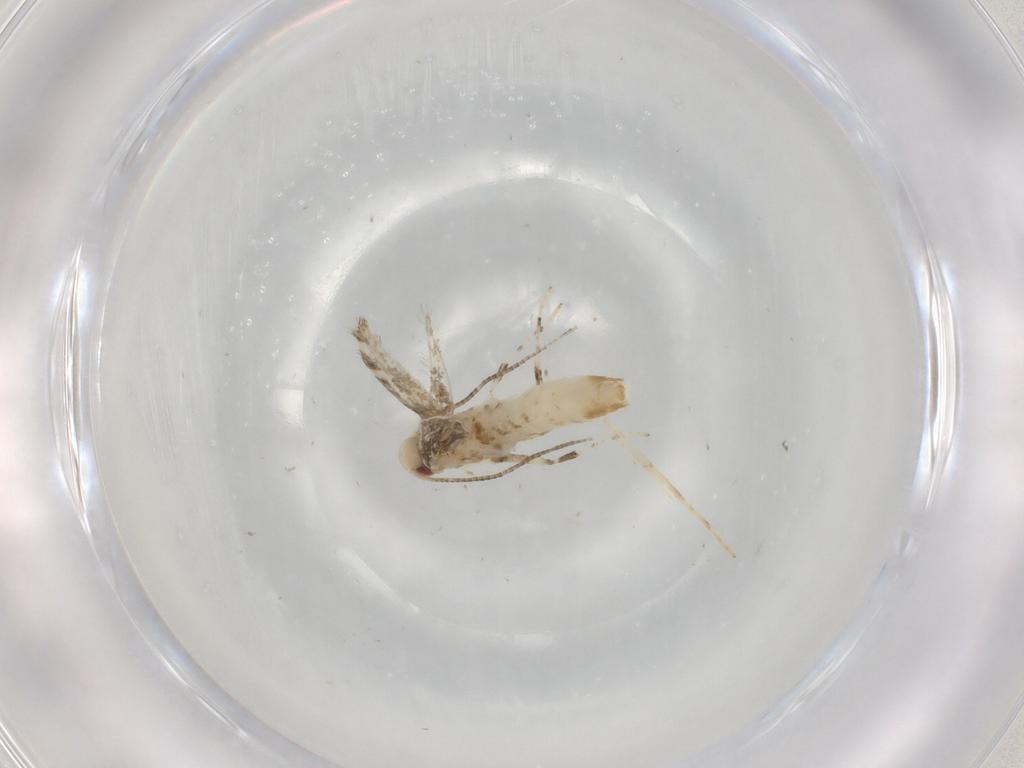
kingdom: Animalia
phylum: Arthropoda
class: Insecta
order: Lepidoptera
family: Gracillariidae
